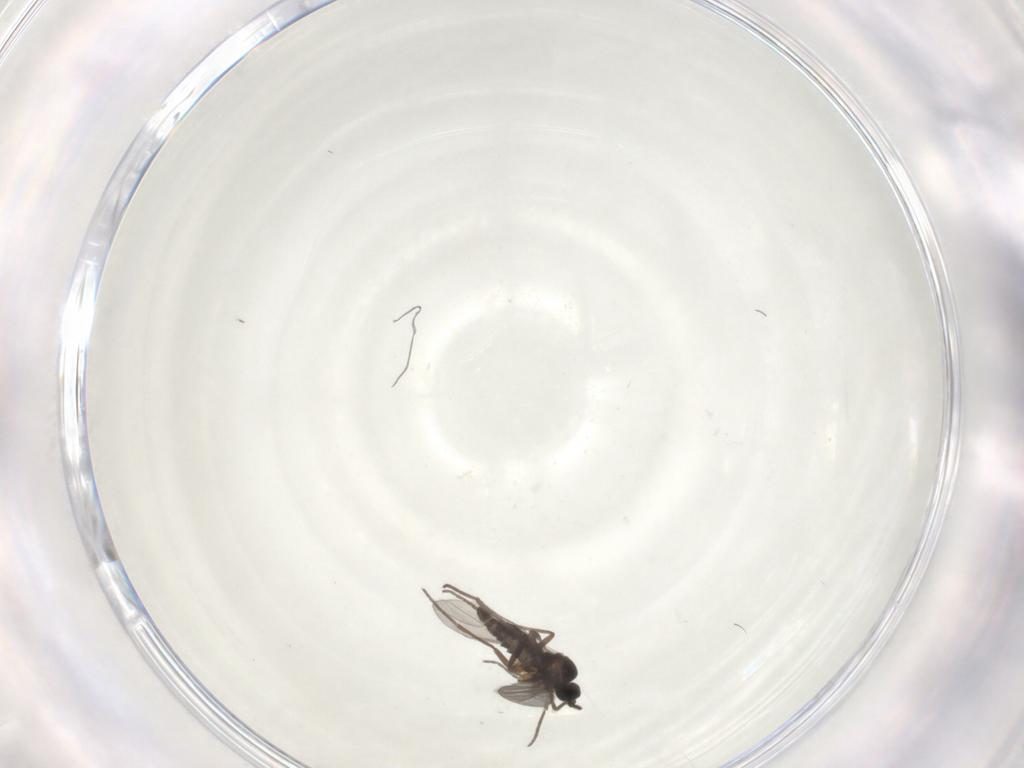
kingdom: Animalia
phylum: Arthropoda
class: Insecta
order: Diptera
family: Sciaridae
